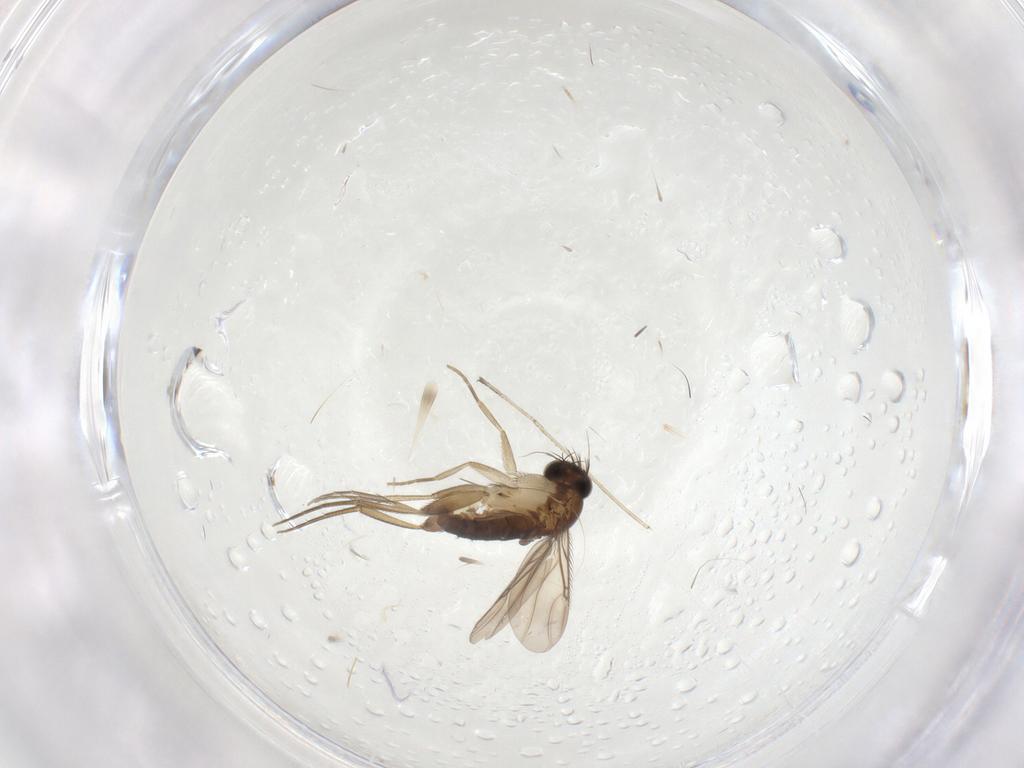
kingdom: Animalia
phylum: Arthropoda
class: Insecta
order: Diptera
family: Phoridae
